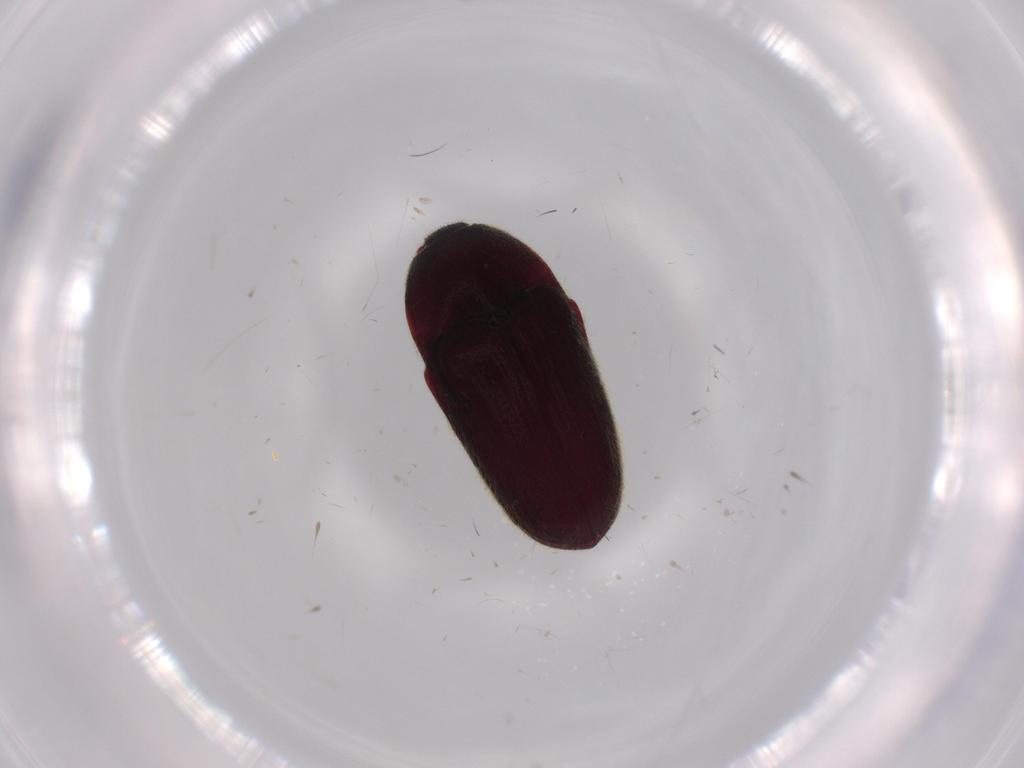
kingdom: Animalia
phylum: Arthropoda
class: Insecta
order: Coleoptera
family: Throscidae
